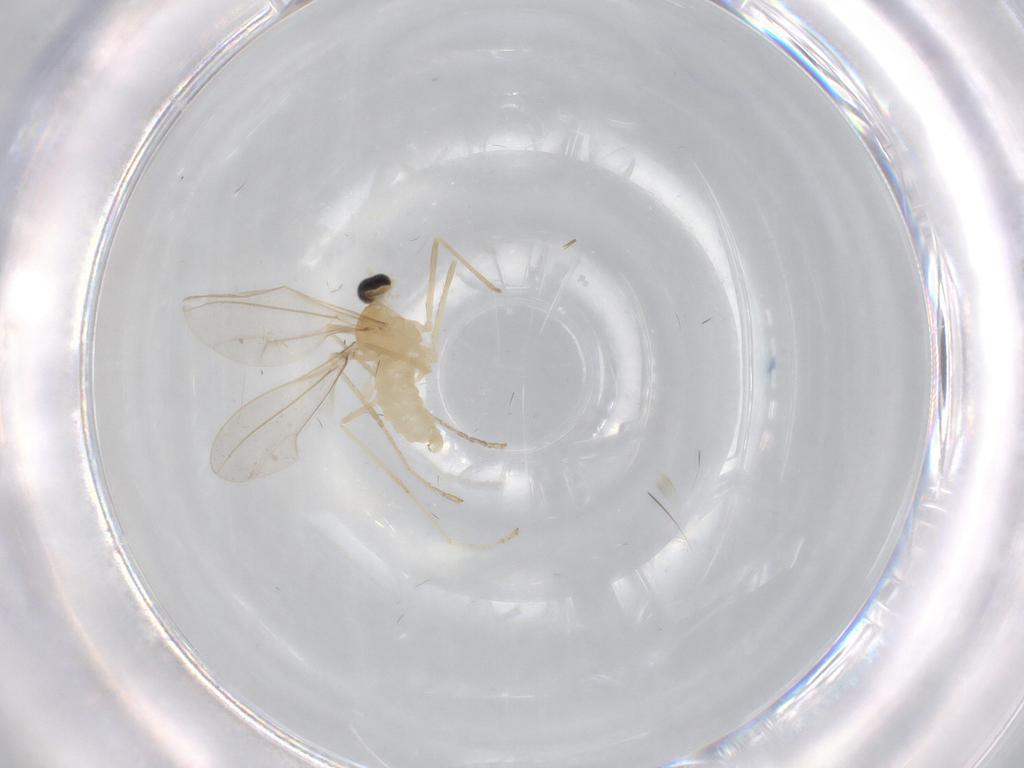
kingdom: Animalia
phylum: Arthropoda
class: Insecta
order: Diptera
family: Cecidomyiidae
